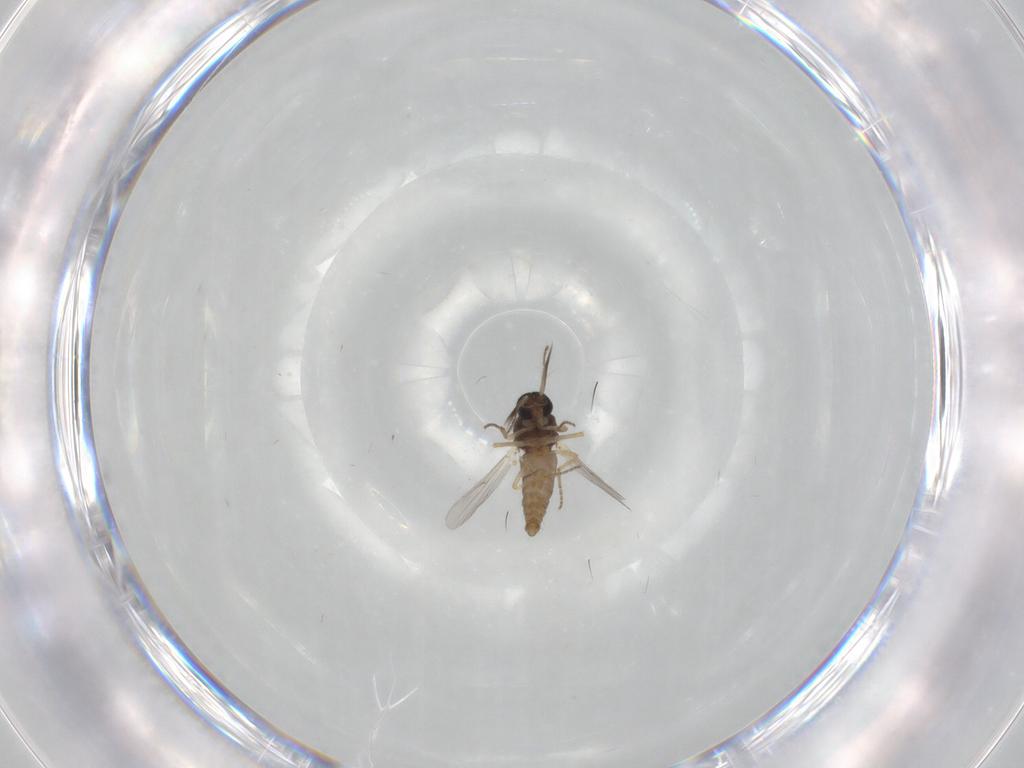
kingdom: Animalia
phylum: Arthropoda
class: Insecta
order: Diptera
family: Ceratopogonidae
